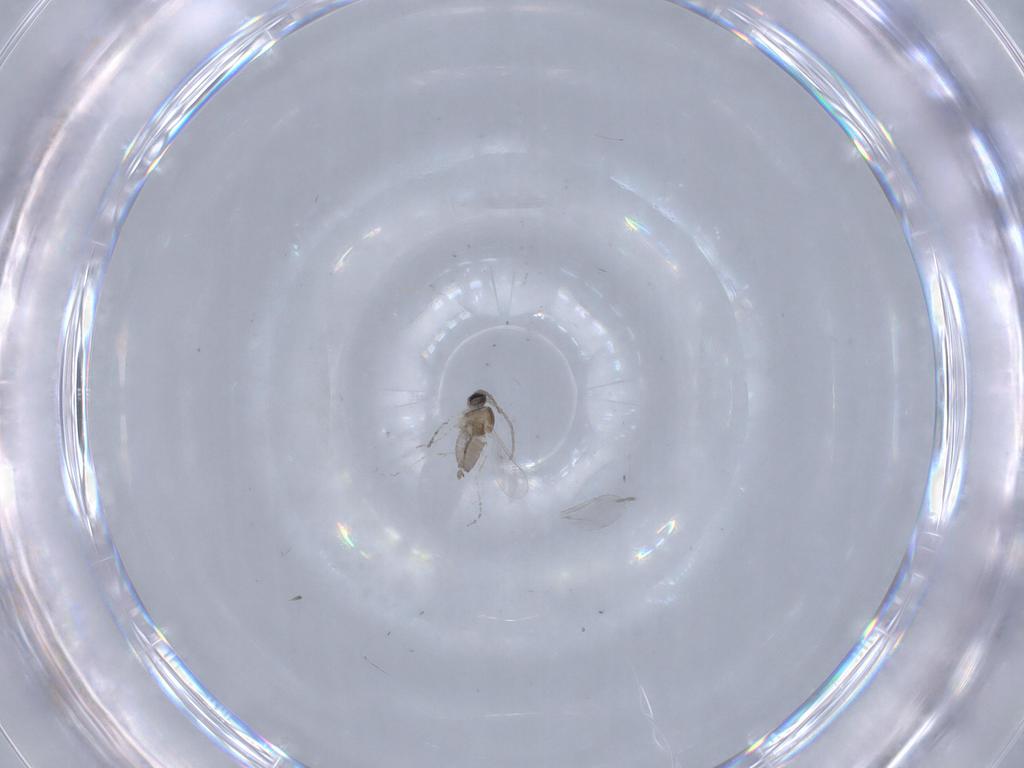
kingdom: Animalia
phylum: Arthropoda
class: Insecta
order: Diptera
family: Cecidomyiidae
